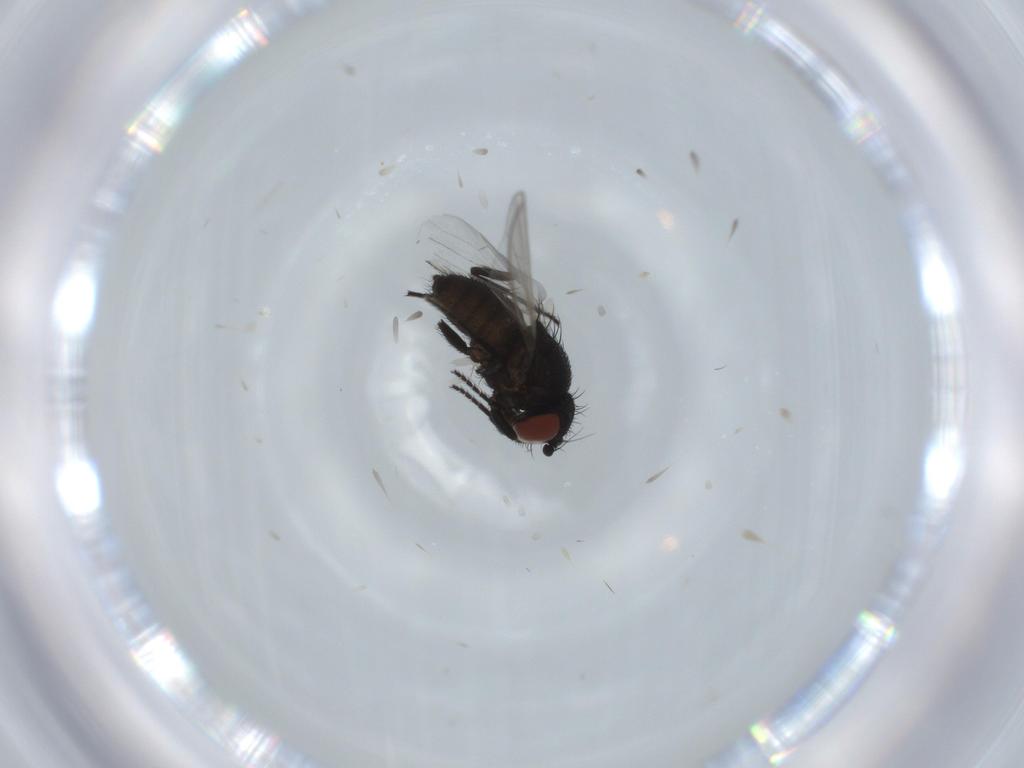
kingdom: Animalia
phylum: Arthropoda
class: Insecta
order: Diptera
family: Milichiidae
